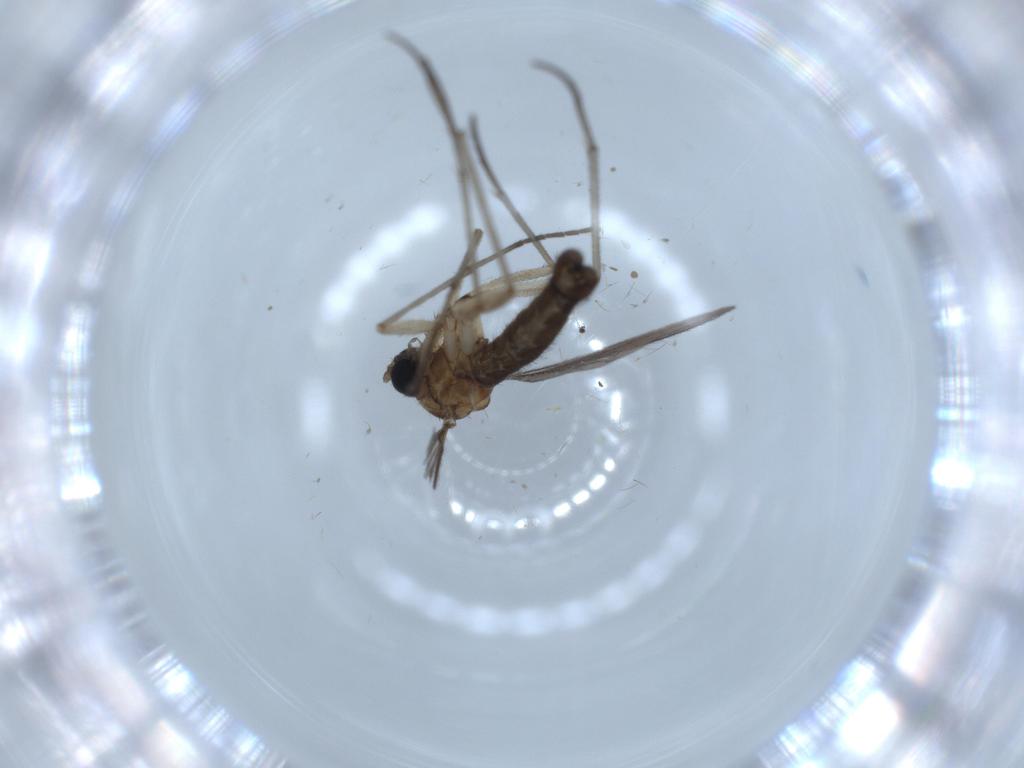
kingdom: Animalia
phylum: Arthropoda
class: Insecta
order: Diptera
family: Sciaridae
